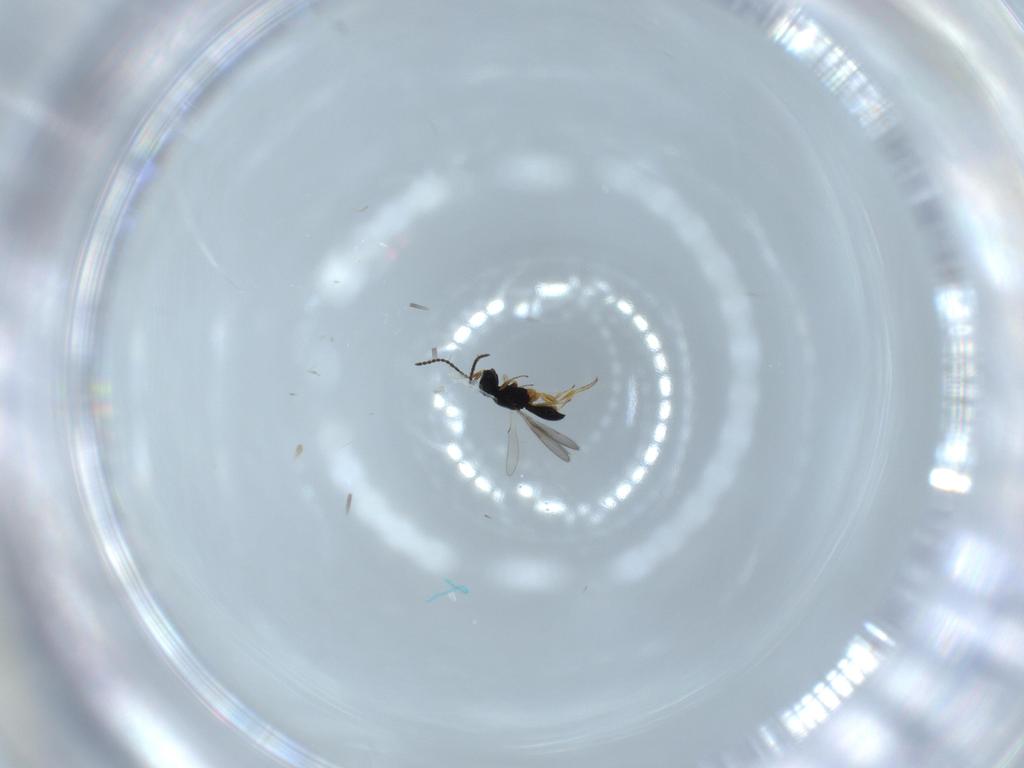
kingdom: Animalia
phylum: Arthropoda
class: Insecta
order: Hymenoptera
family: Scelionidae
